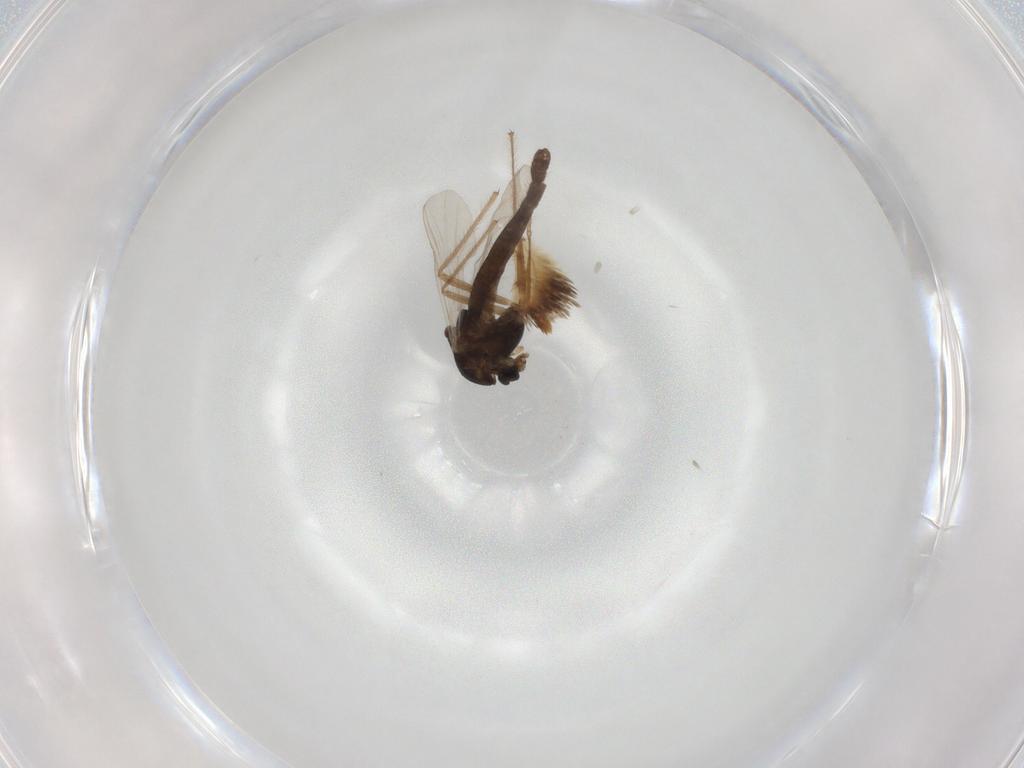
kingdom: Animalia
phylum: Arthropoda
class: Insecta
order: Diptera
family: Chironomidae
